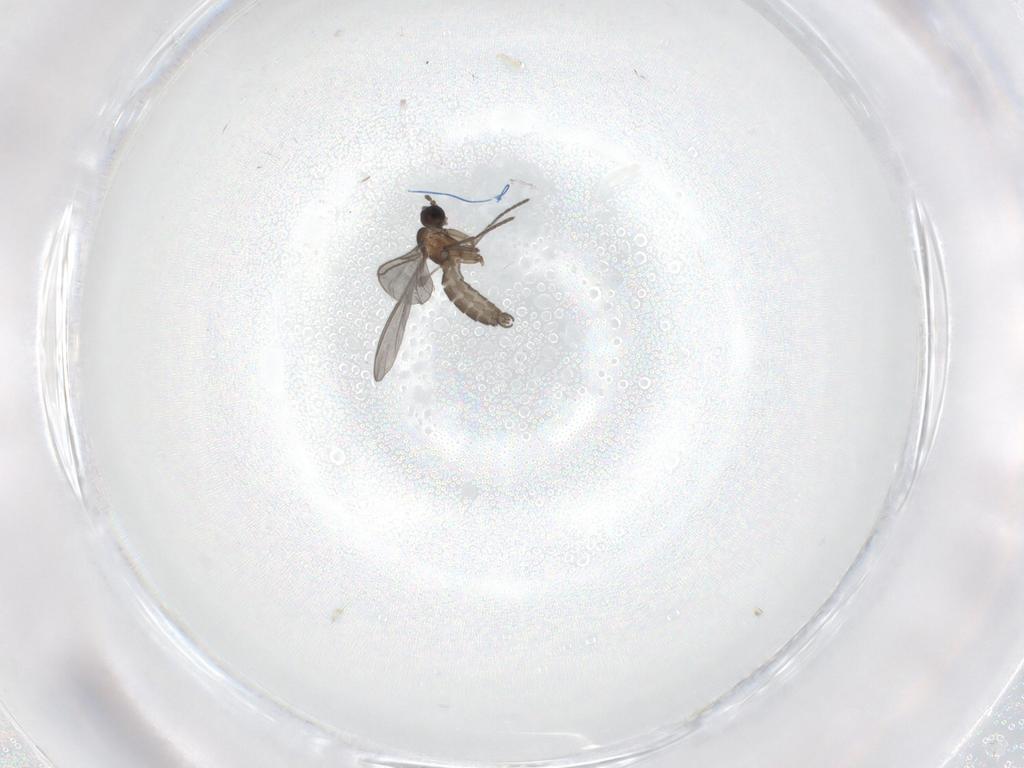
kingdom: Animalia
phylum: Arthropoda
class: Insecta
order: Diptera
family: Chironomidae
